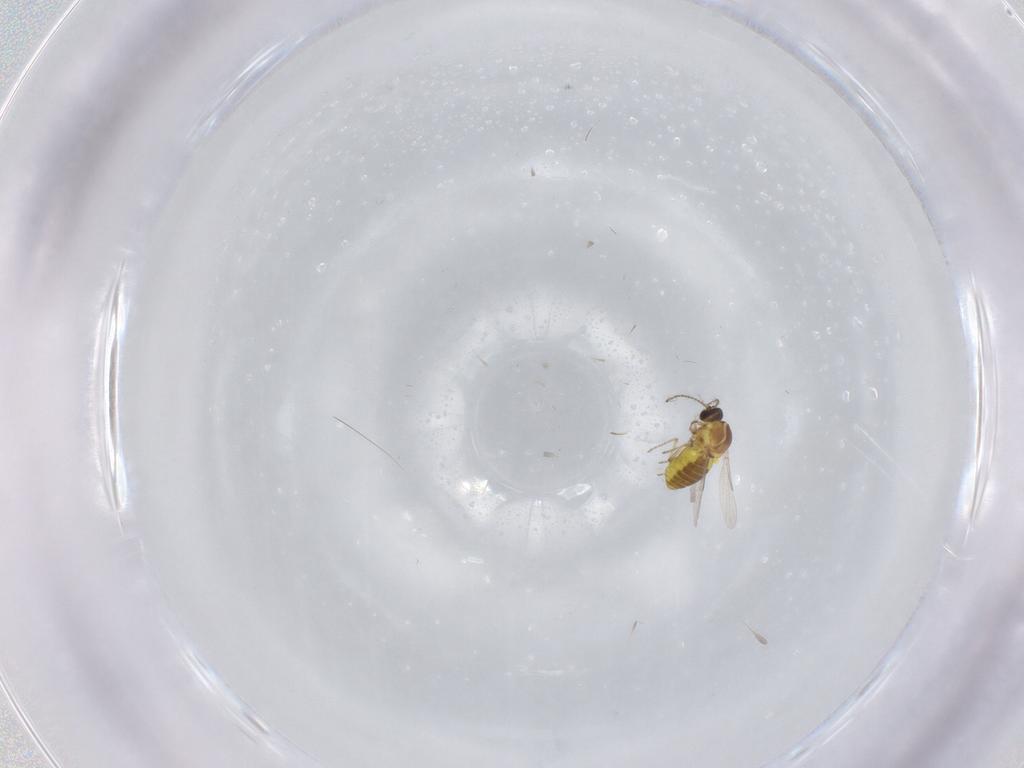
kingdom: Animalia
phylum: Arthropoda
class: Insecta
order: Diptera
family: Ceratopogonidae
